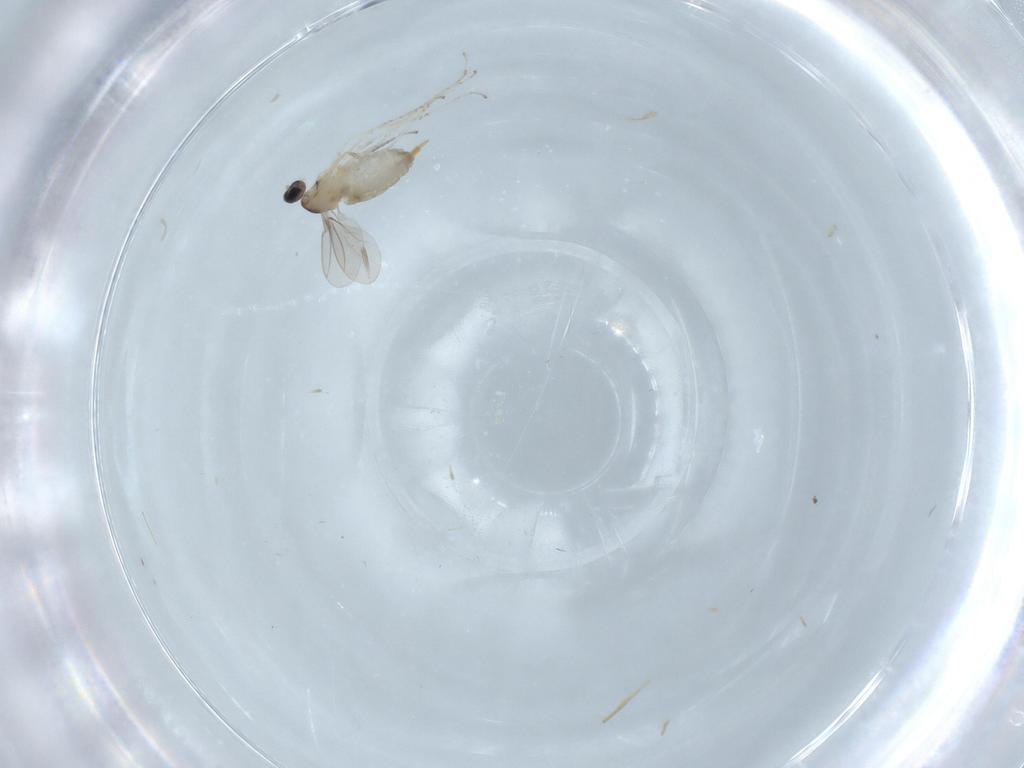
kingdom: Animalia
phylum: Arthropoda
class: Insecta
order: Diptera
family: Cecidomyiidae
